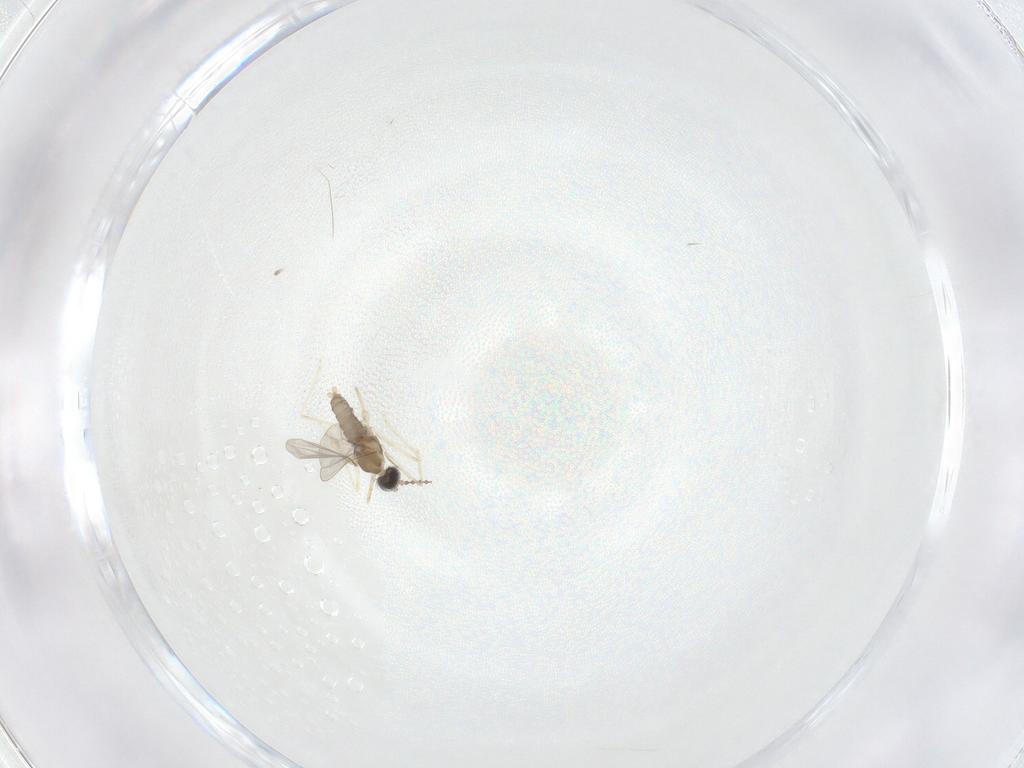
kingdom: Animalia
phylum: Arthropoda
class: Insecta
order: Diptera
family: Cecidomyiidae
